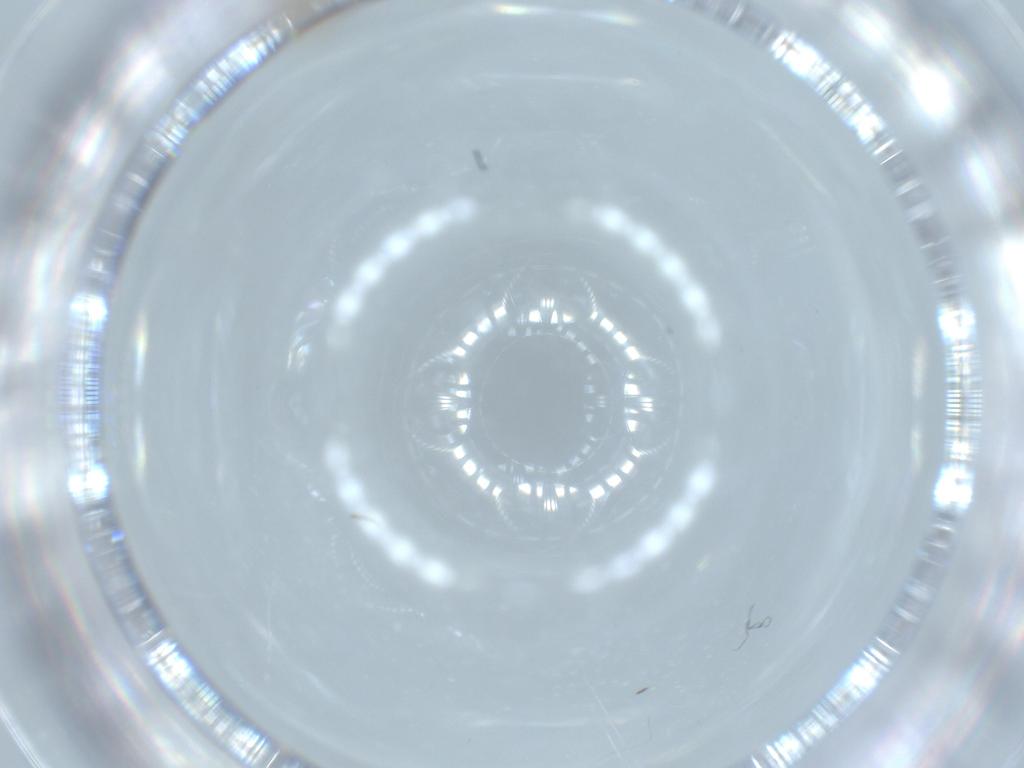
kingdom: Animalia
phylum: Arthropoda
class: Insecta
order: Diptera
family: Cecidomyiidae
